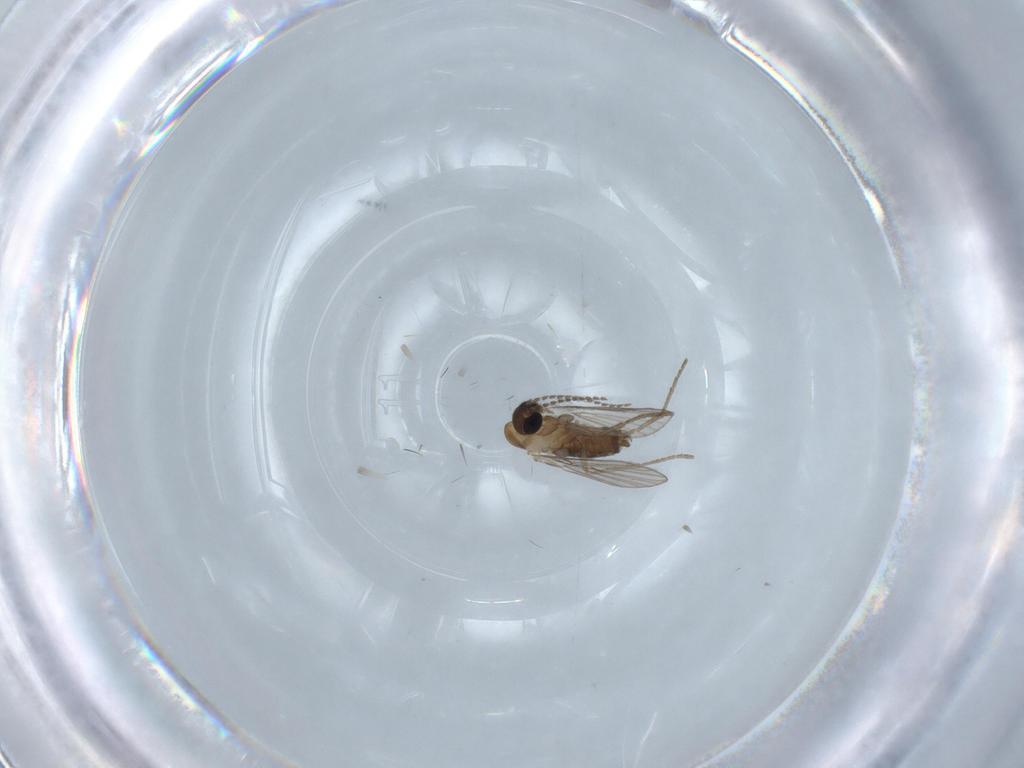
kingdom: Animalia
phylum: Arthropoda
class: Insecta
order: Diptera
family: Psychodidae
